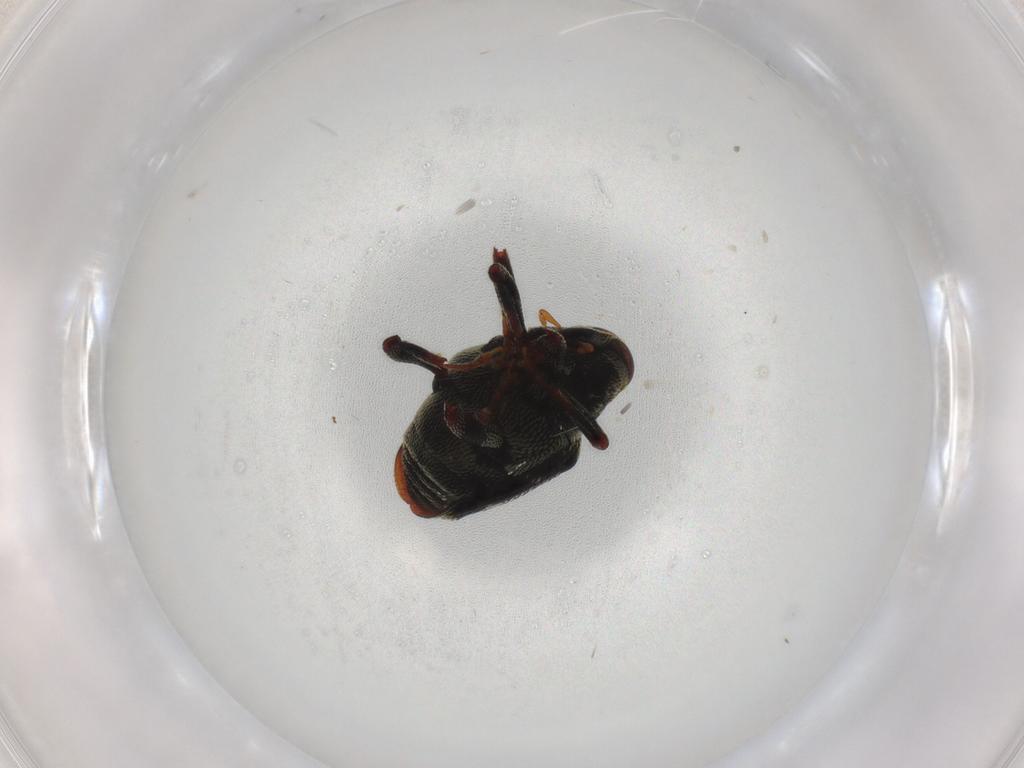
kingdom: Animalia
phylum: Arthropoda
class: Insecta
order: Coleoptera
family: Curculionidae
